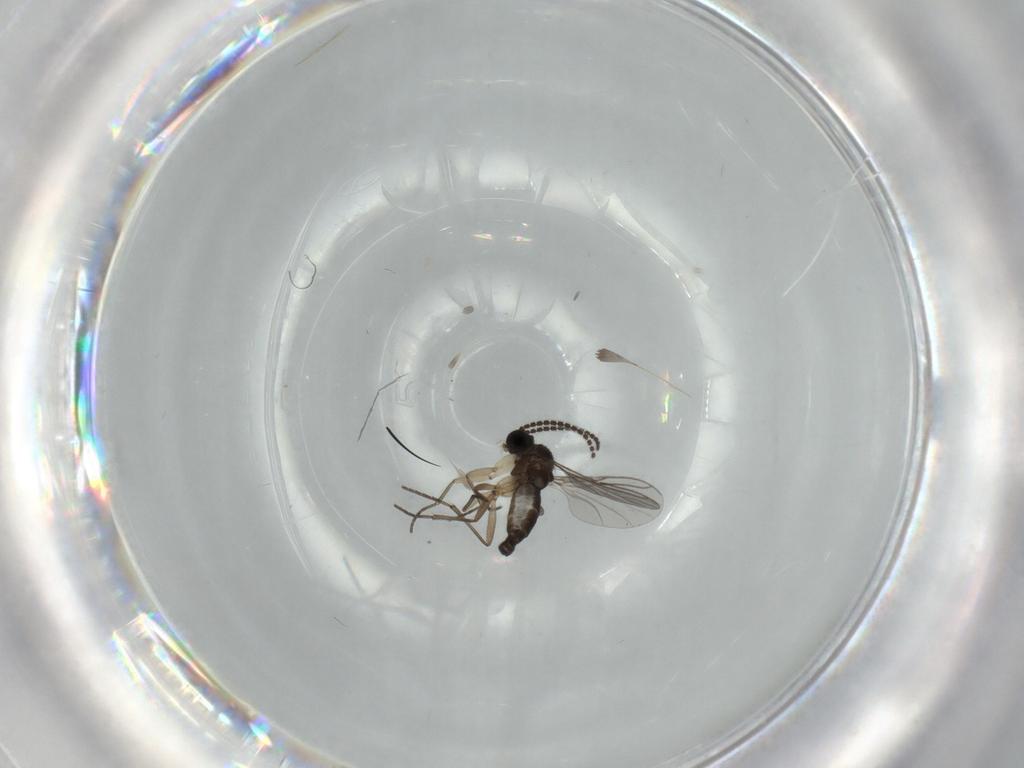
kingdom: Animalia
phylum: Arthropoda
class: Insecta
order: Diptera
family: Sciaridae
